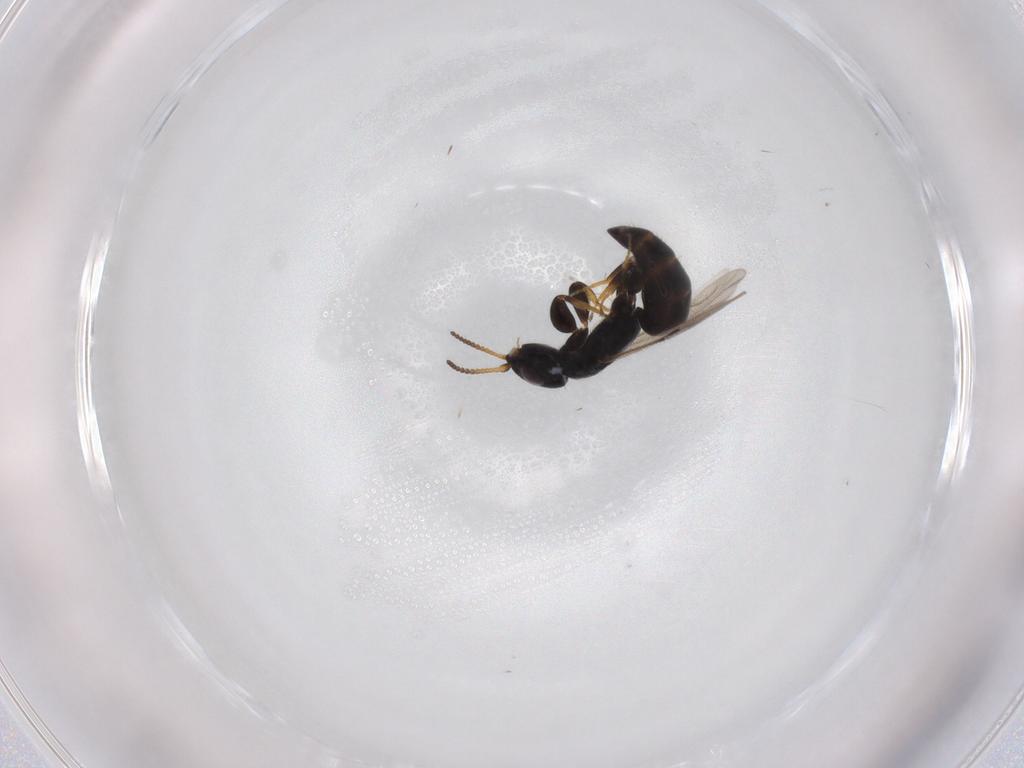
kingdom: Animalia
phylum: Arthropoda
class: Insecta
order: Hymenoptera
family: Bethylidae
